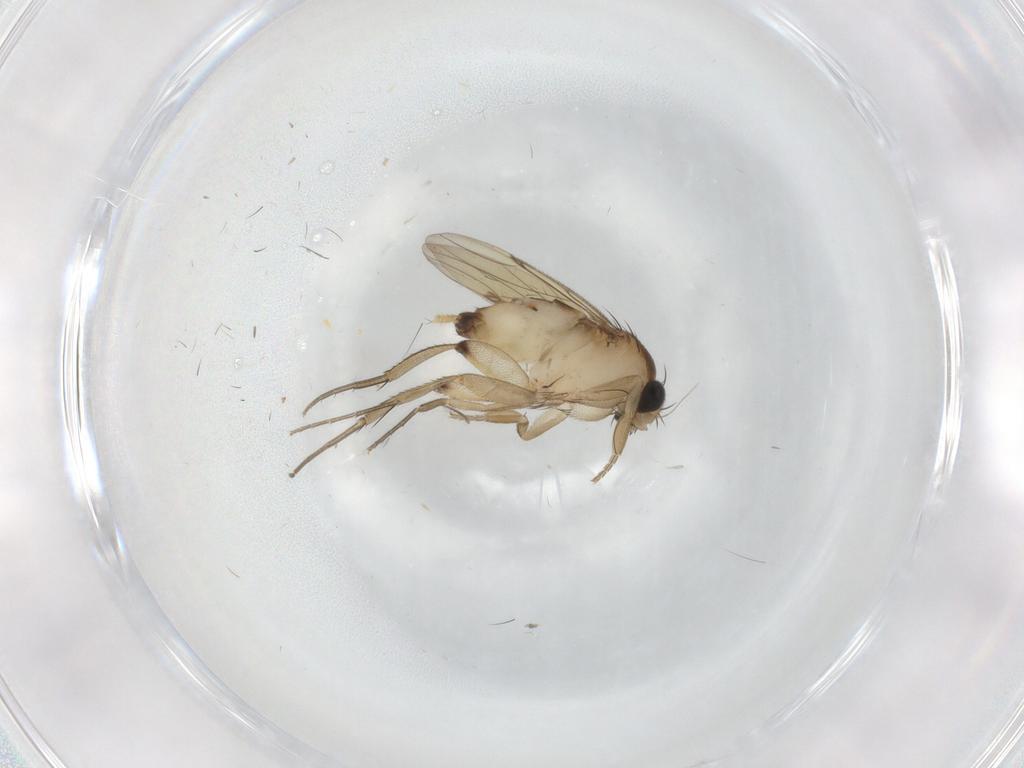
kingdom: Animalia
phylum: Arthropoda
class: Insecta
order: Diptera
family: Phoridae
